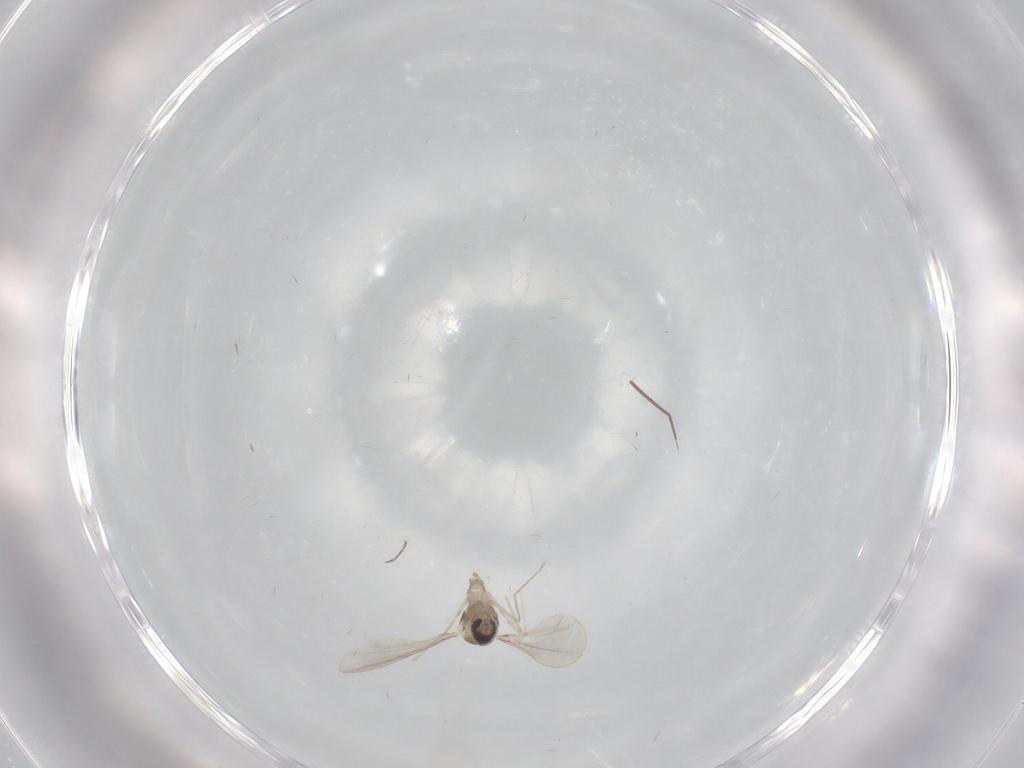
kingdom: Animalia
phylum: Arthropoda
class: Insecta
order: Diptera
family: Cecidomyiidae
